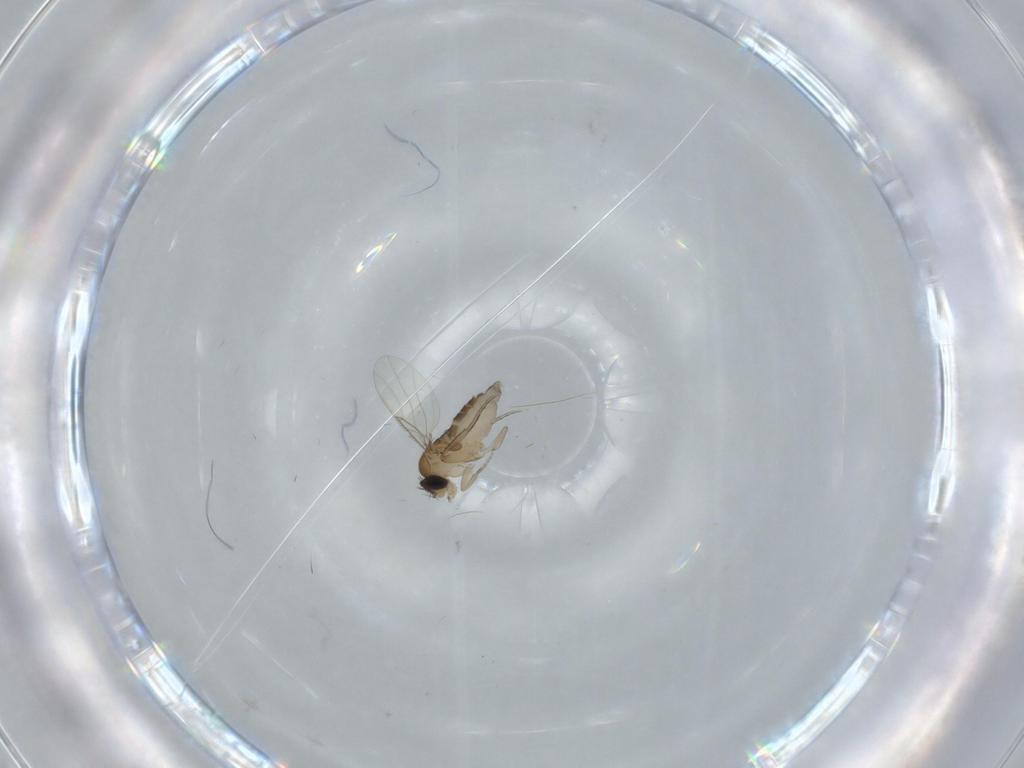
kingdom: Animalia
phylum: Arthropoda
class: Insecta
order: Diptera
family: Phoridae
